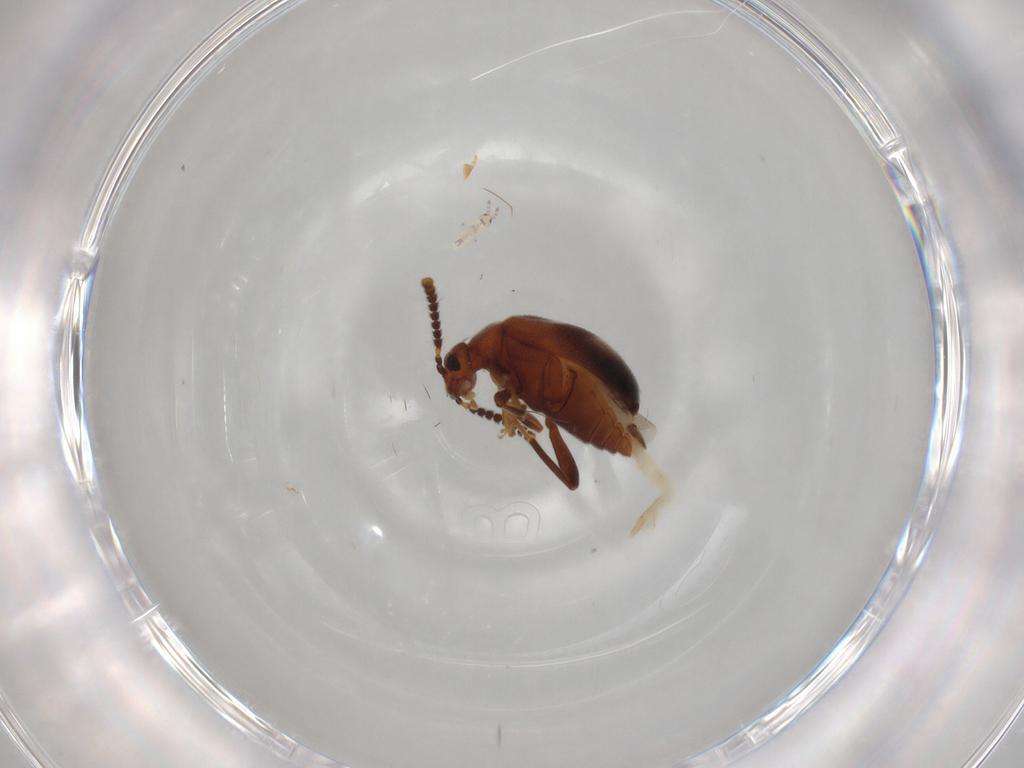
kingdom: Animalia
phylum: Arthropoda
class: Insecta
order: Coleoptera
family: Aderidae
